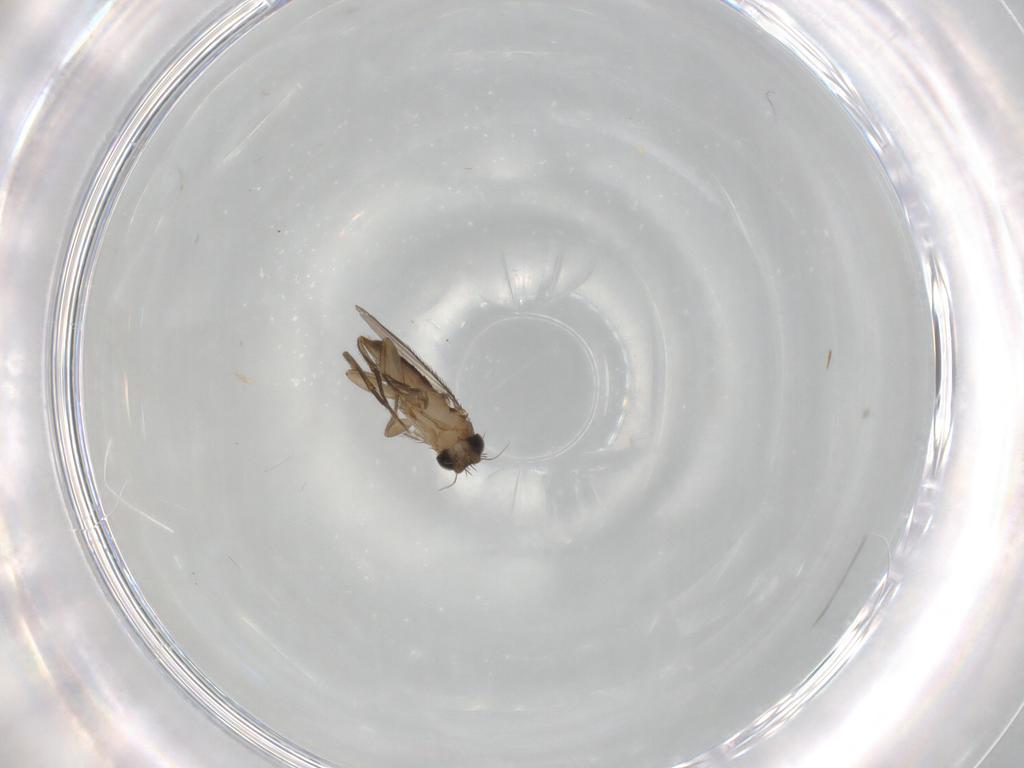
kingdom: Animalia
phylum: Arthropoda
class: Insecta
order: Diptera
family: Phoridae
